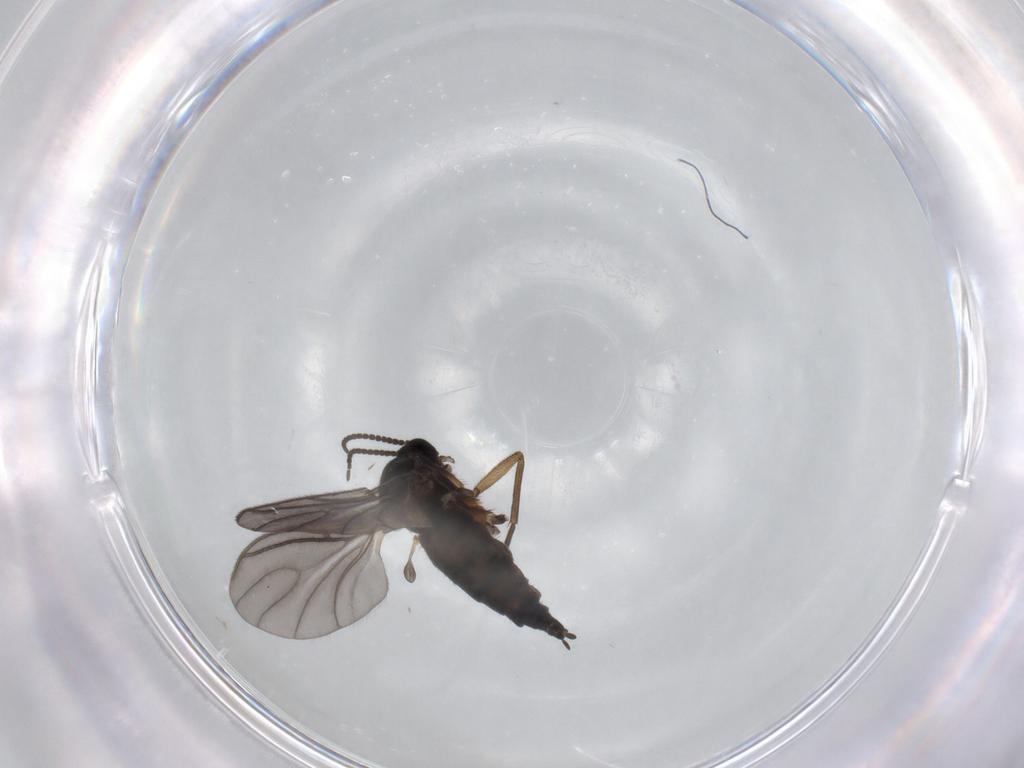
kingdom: Animalia
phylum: Arthropoda
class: Insecta
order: Diptera
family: Sciaridae
